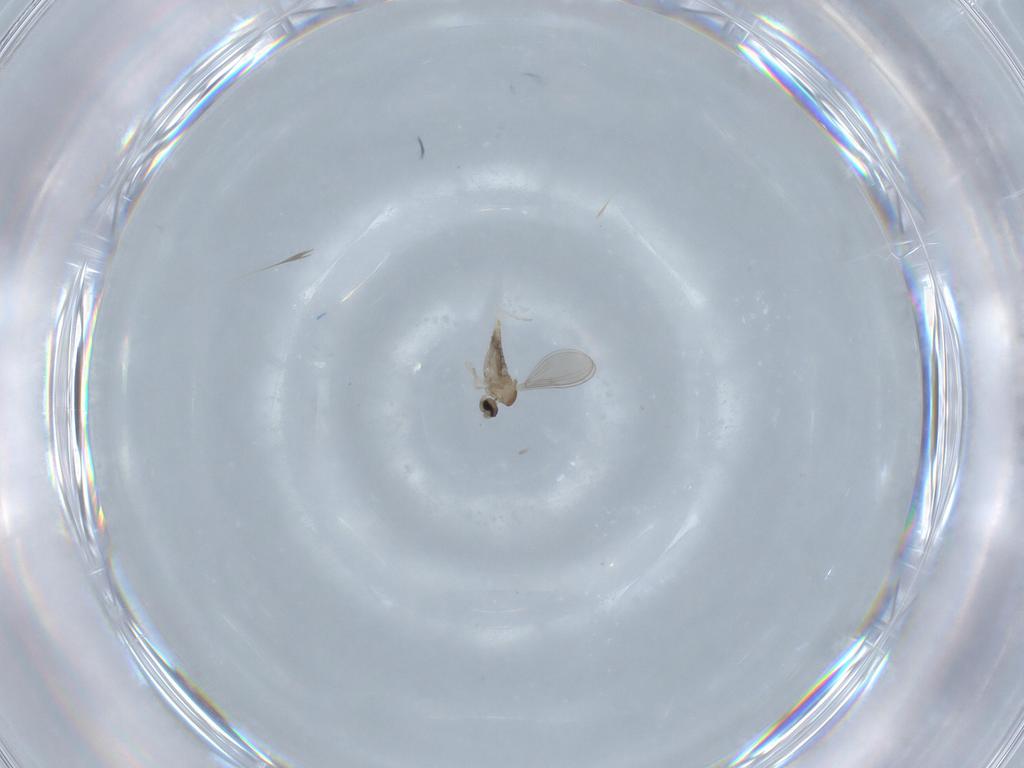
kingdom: Animalia
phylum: Arthropoda
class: Insecta
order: Diptera
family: Cecidomyiidae
